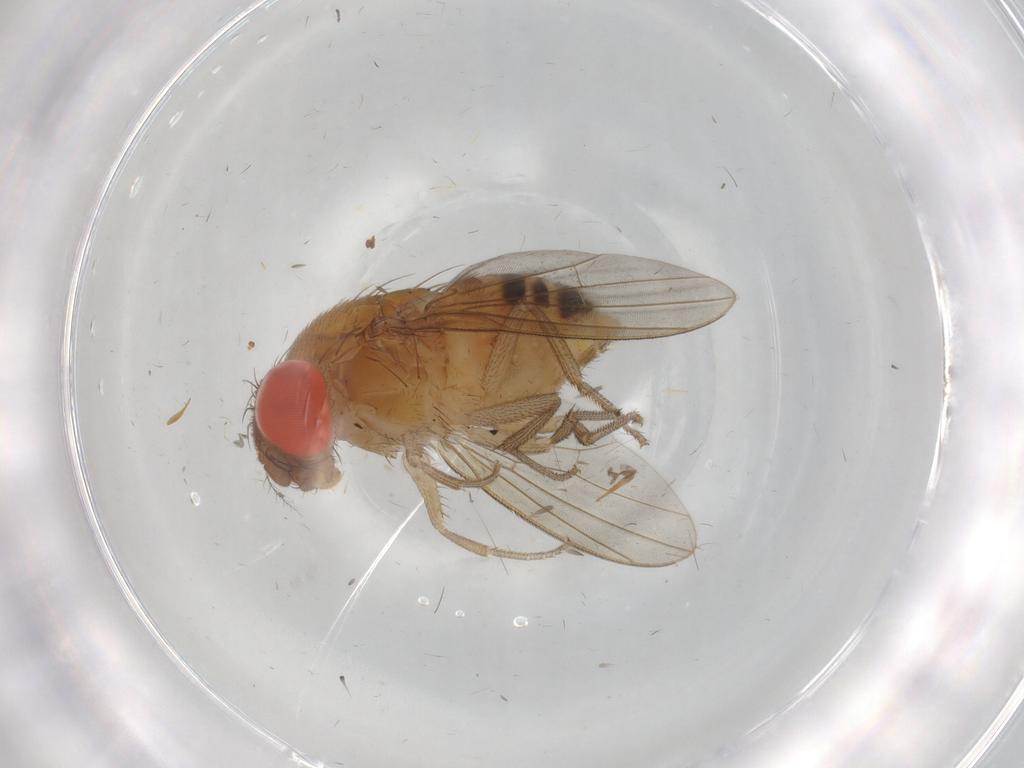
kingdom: Animalia
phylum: Arthropoda
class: Insecta
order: Diptera
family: Drosophilidae
